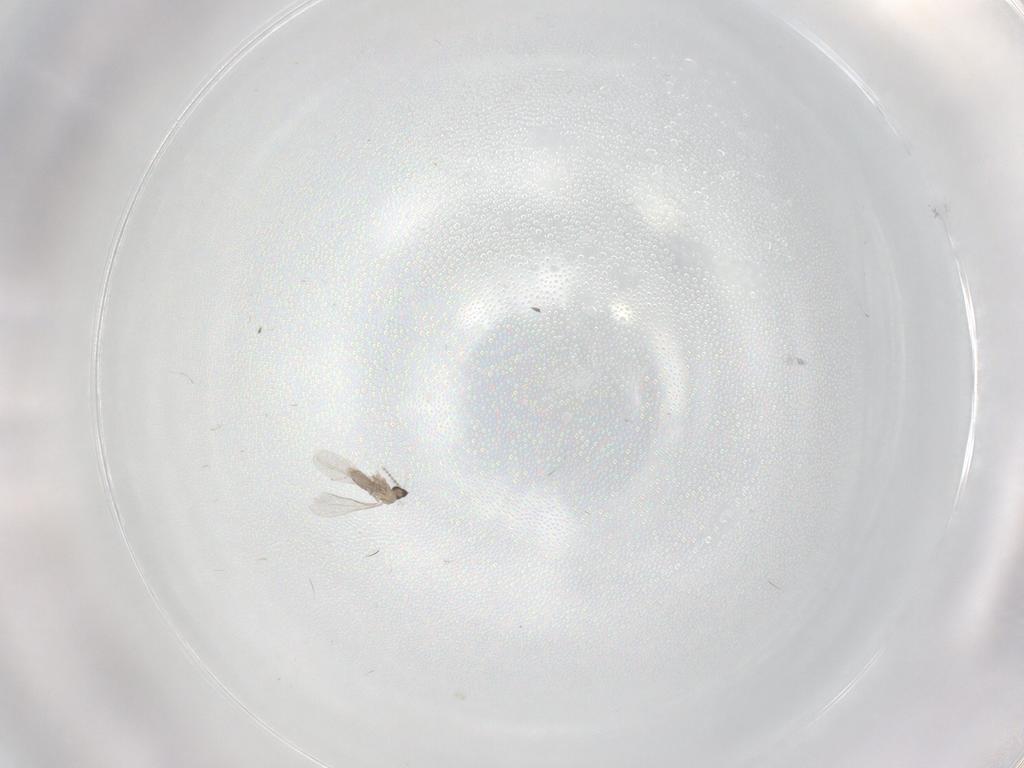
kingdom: Animalia
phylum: Arthropoda
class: Insecta
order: Diptera
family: Cecidomyiidae
